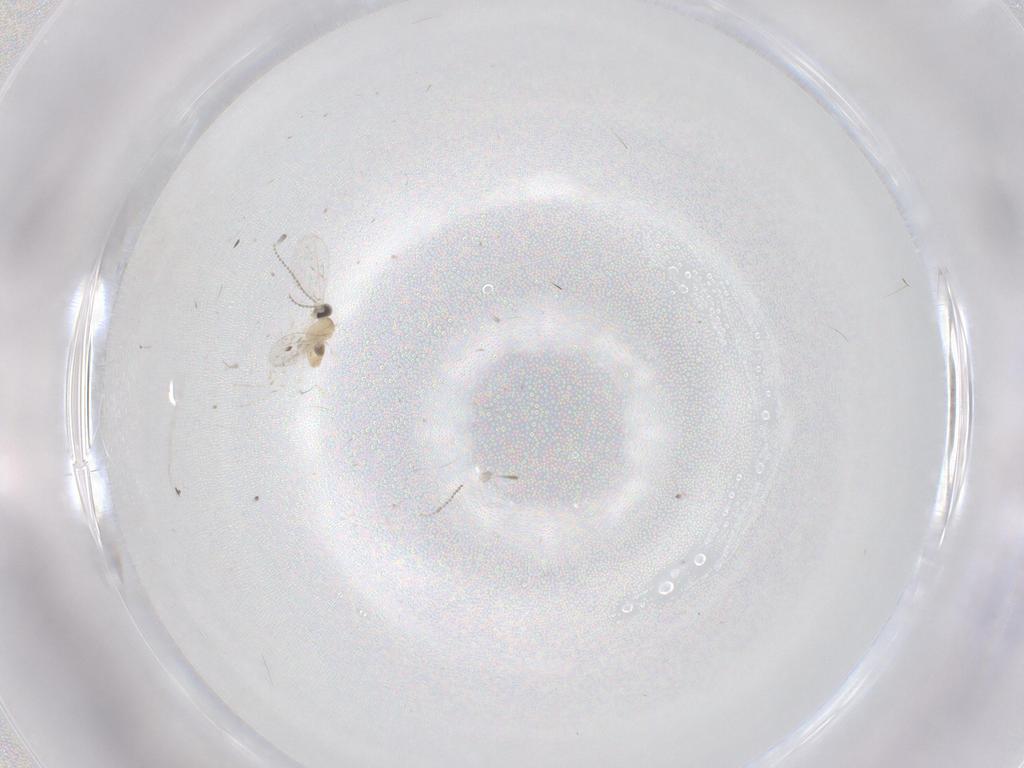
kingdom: Animalia
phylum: Arthropoda
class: Insecta
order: Diptera
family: Cecidomyiidae
